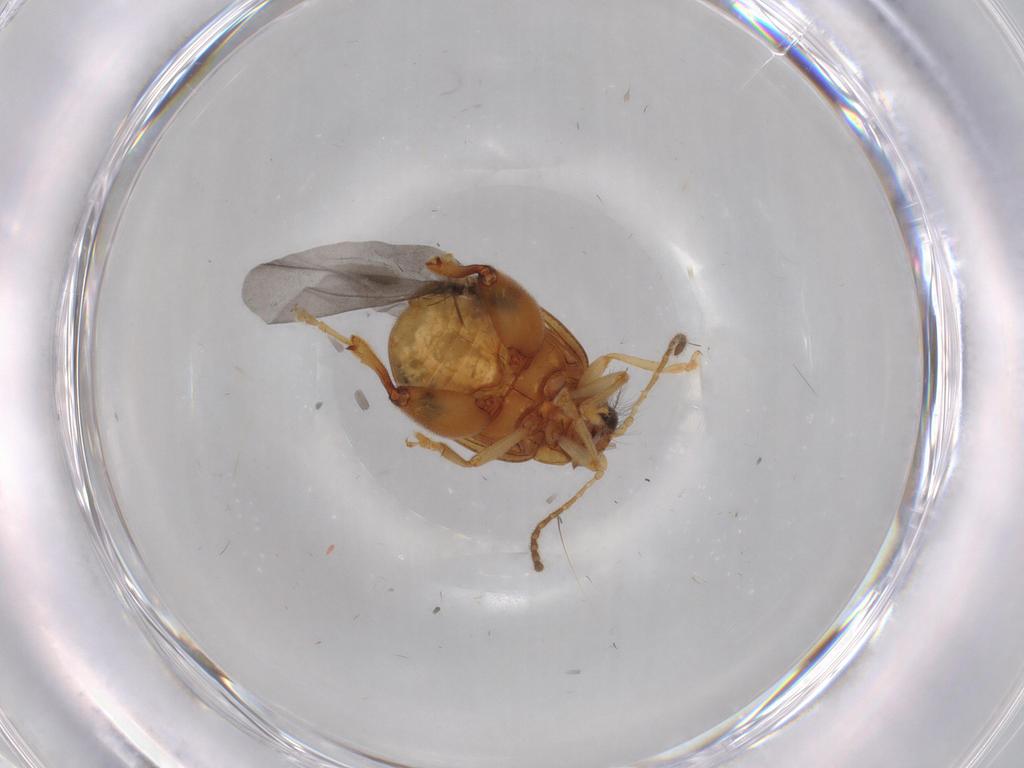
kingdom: Animalia
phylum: Arthropoda
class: Insecta
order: Coleoptera
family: Chrysomelidae
